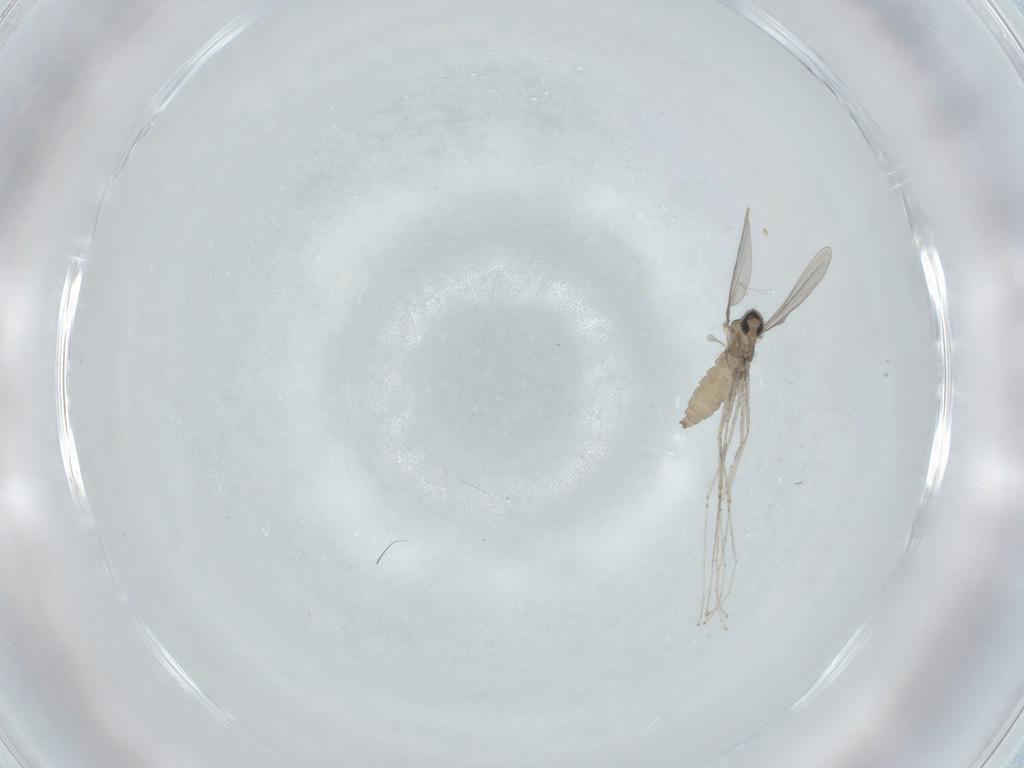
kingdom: Animalia
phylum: Arthropoda
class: Insecta
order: Diptera
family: Cecidomyiidae
